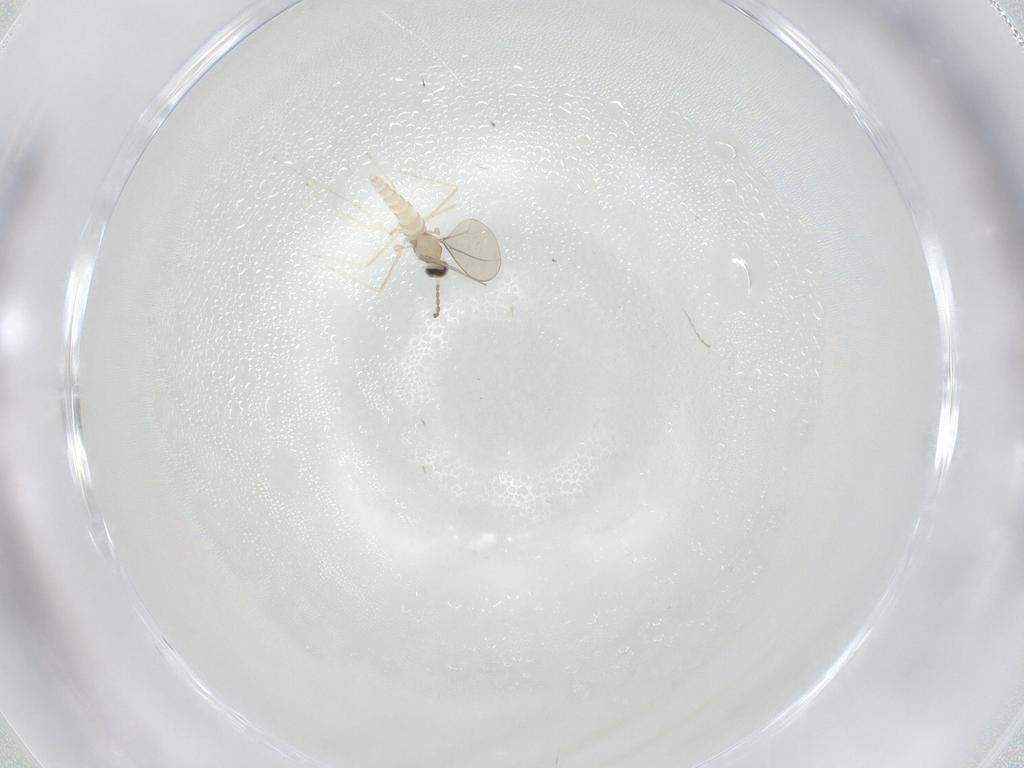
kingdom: Animalia
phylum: Arthropoda
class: Insecta
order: Diptera
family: Cecidomyiidae
